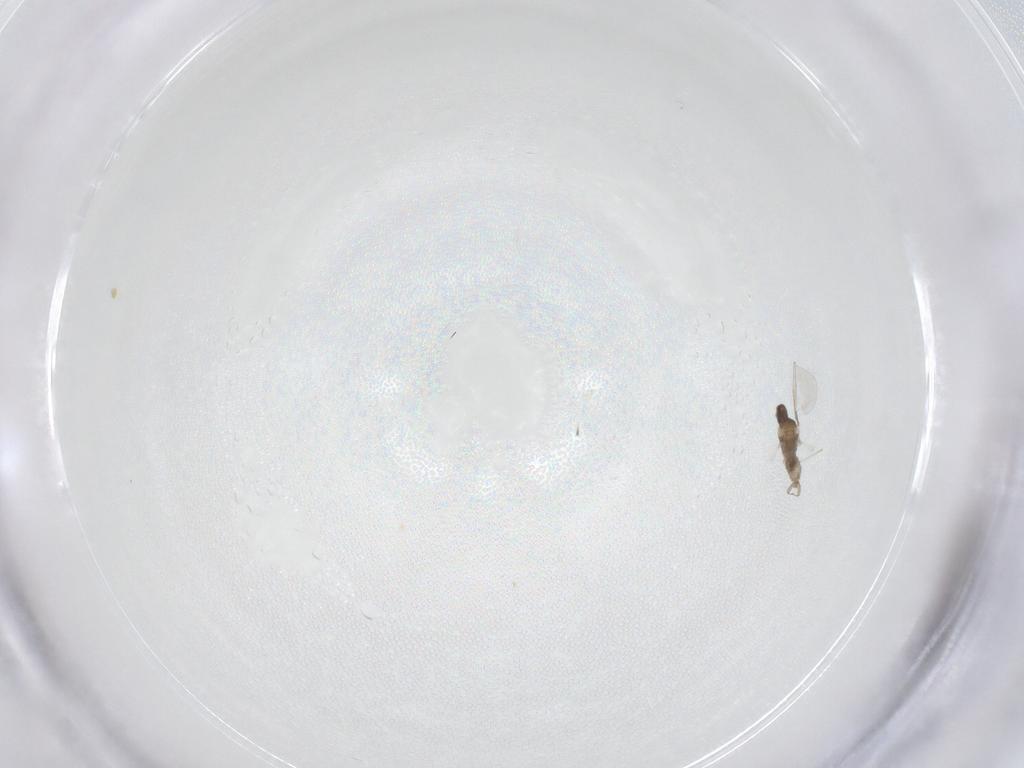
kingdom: Animalia
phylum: Arthropoda
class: Insecta
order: Diptera
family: Cecidomyiidae
